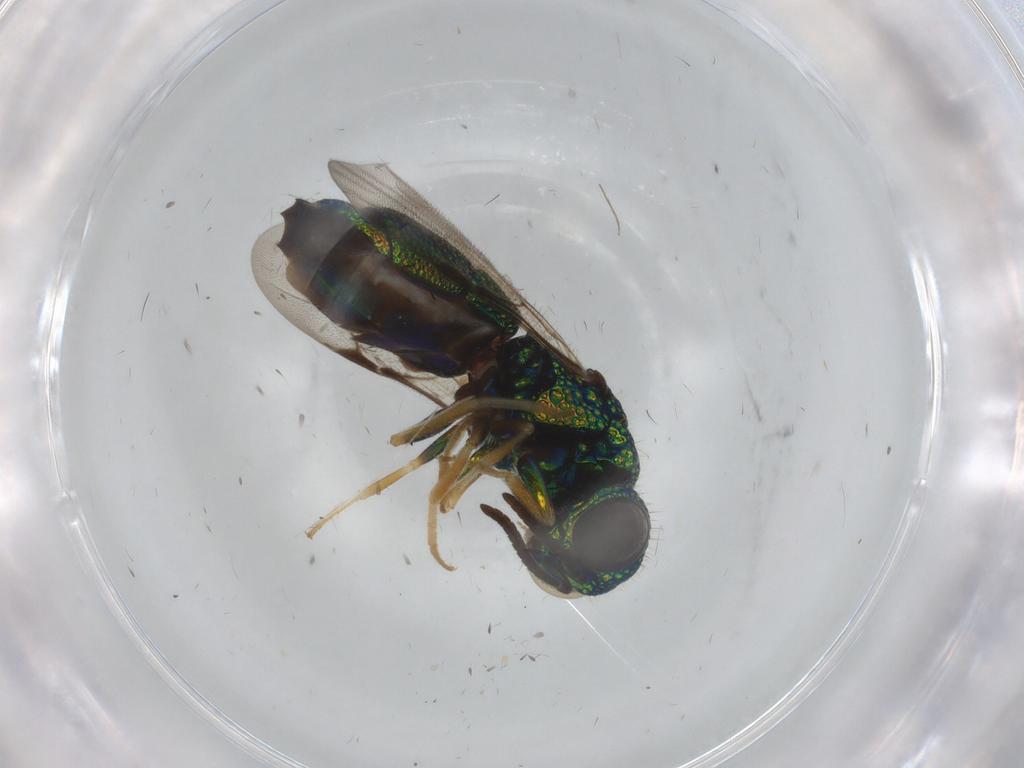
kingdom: Animalia
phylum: Arthropoda
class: Insecta
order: Hymenoptera
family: Chrysididae
